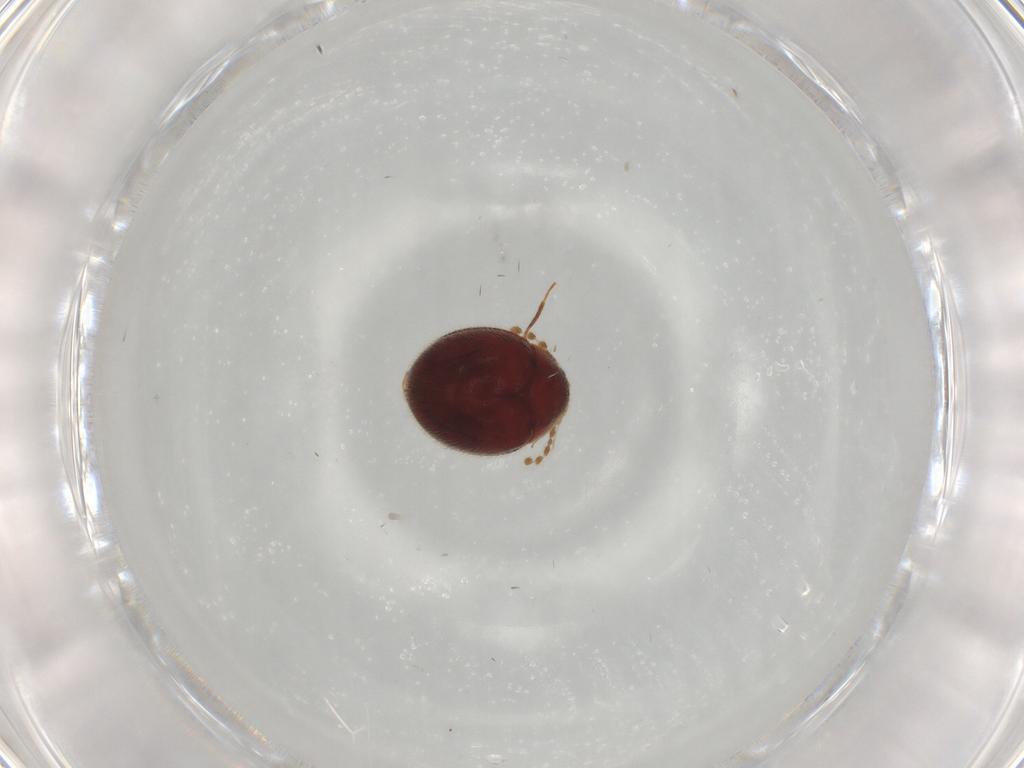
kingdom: Animalia
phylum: Arthropoda
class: Insecta
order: Coleoptera
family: Anamorphidae
